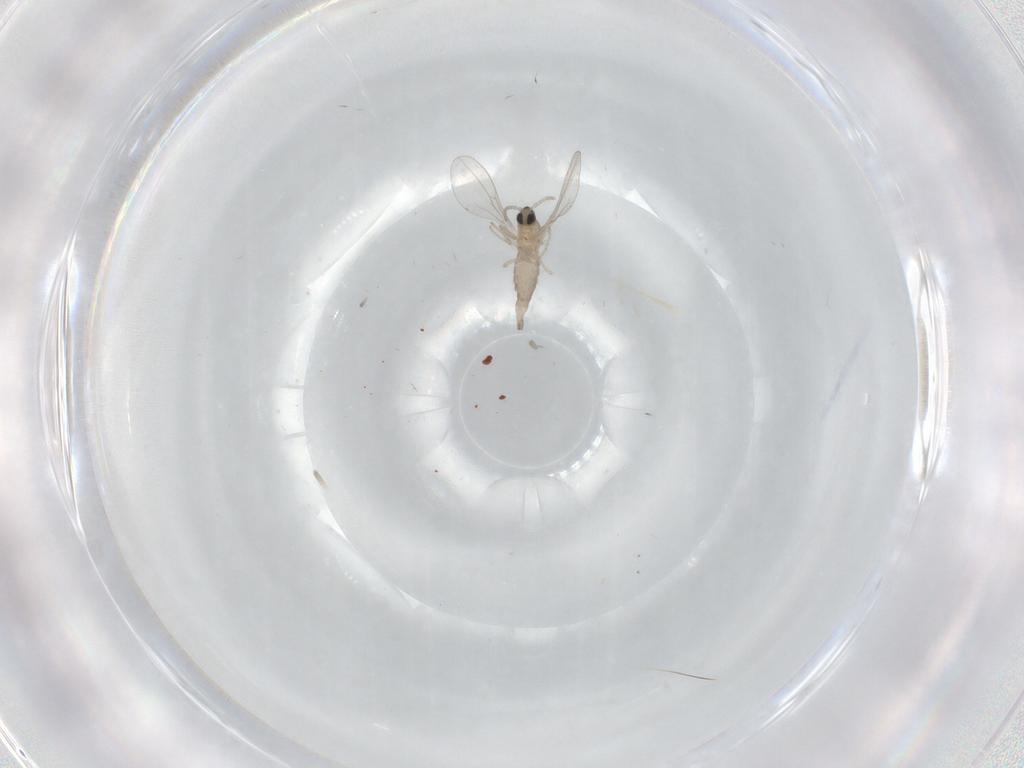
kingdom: Animalia
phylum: Arthropoda
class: Insecta
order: Diptera
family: Cecidomyiidae
